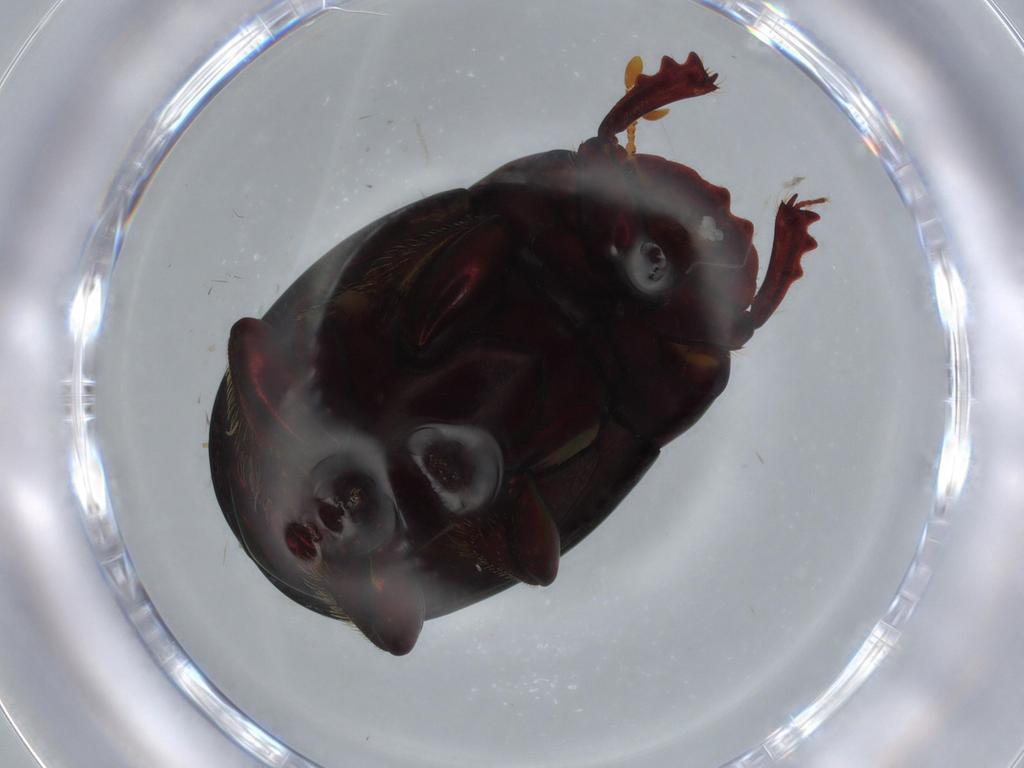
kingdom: Animalia
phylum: Arthropoda
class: Insecta
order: Coleoptera
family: Scarabaeidae
